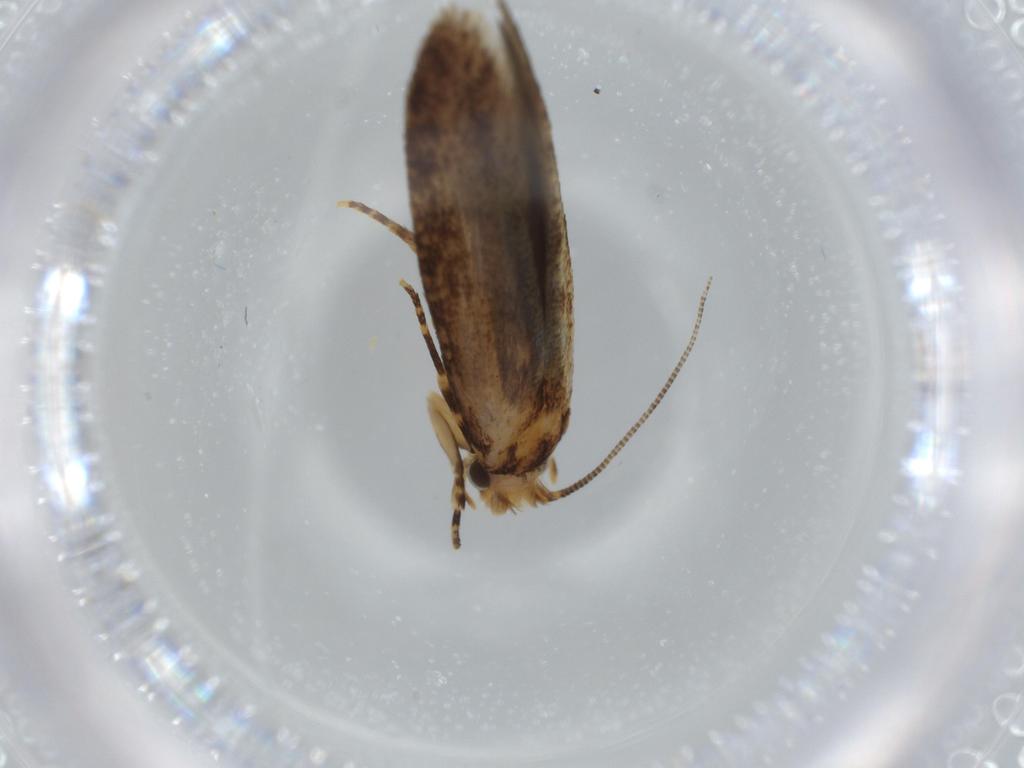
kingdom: Animalia
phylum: Arthropoda
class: Insecta
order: Lepidoptera
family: Tineidae
